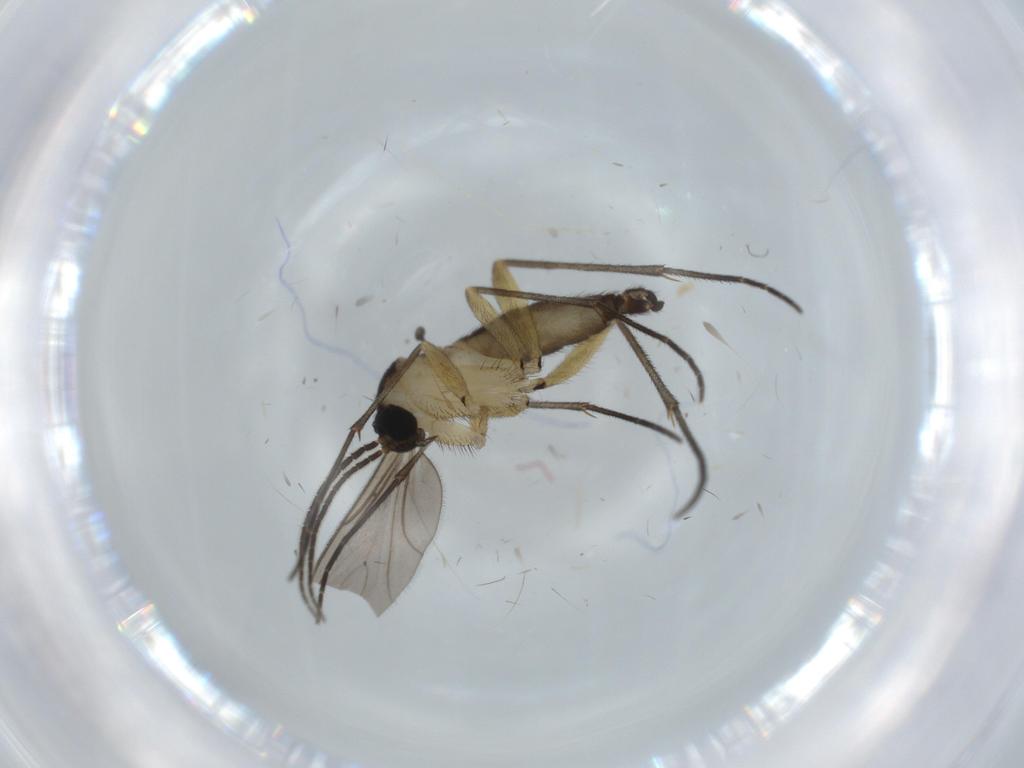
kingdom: Animalia
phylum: Arthropoda
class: Insecta
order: Diptera
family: Sciaridae
